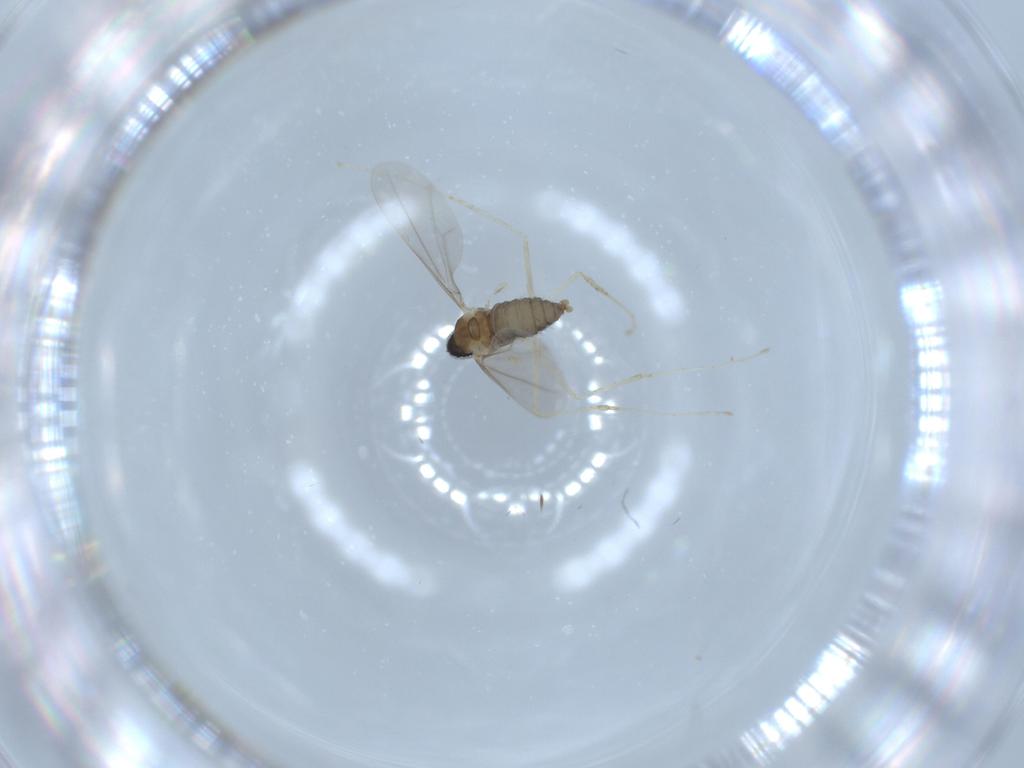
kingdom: Animalia
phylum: Arthropoda
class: Insecta
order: Diptera
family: Cecidomyiidae
